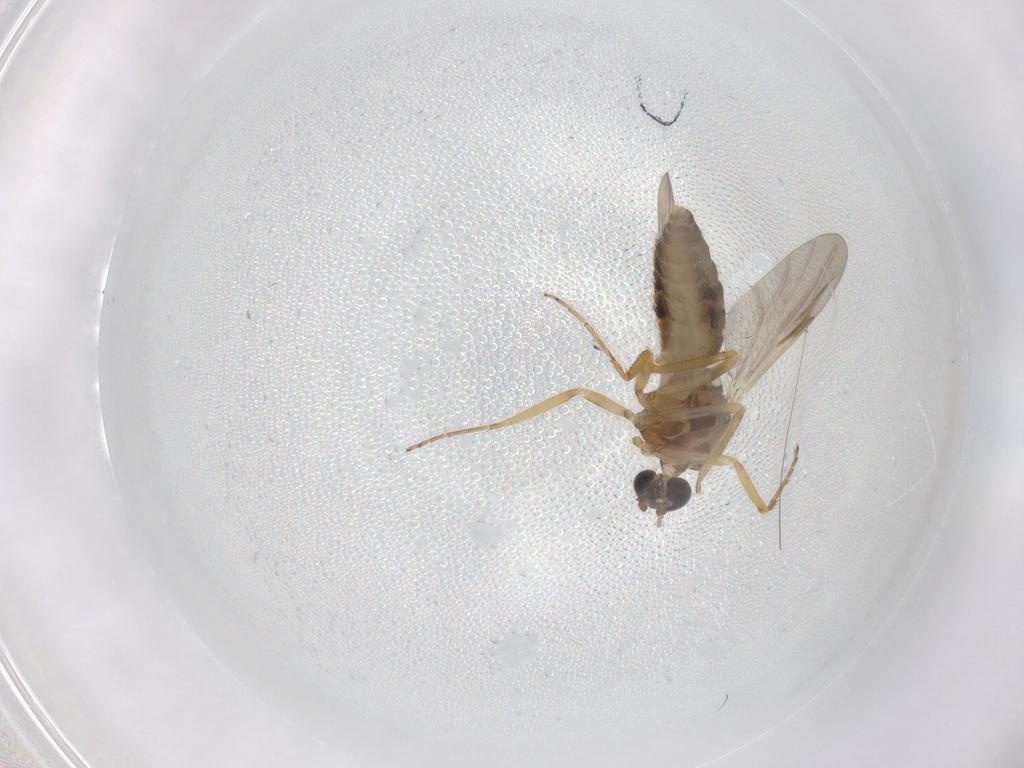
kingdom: Animalia
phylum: Arthropoda
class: Insecta
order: Diptera
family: Ceratopogonidae
